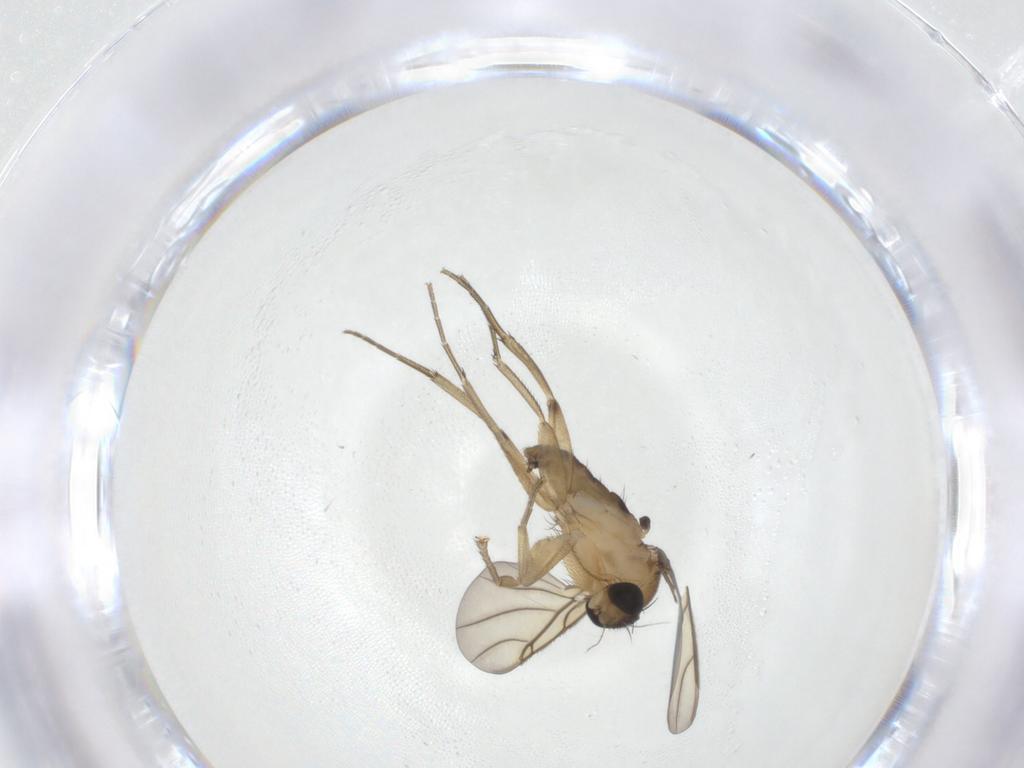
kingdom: Animalia
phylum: Arthropoda
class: Insecta
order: Diptera
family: Phoridae
